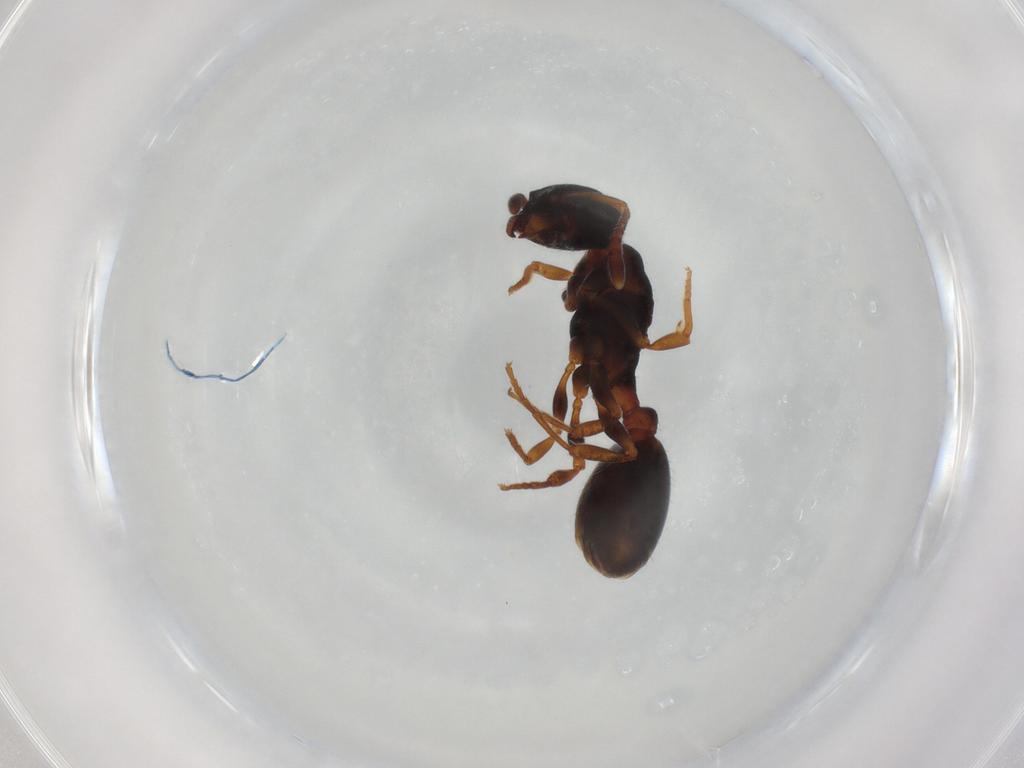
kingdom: Animalia
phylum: Arthropoda
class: Insecta
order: Hymenoptera
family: Formicidae
